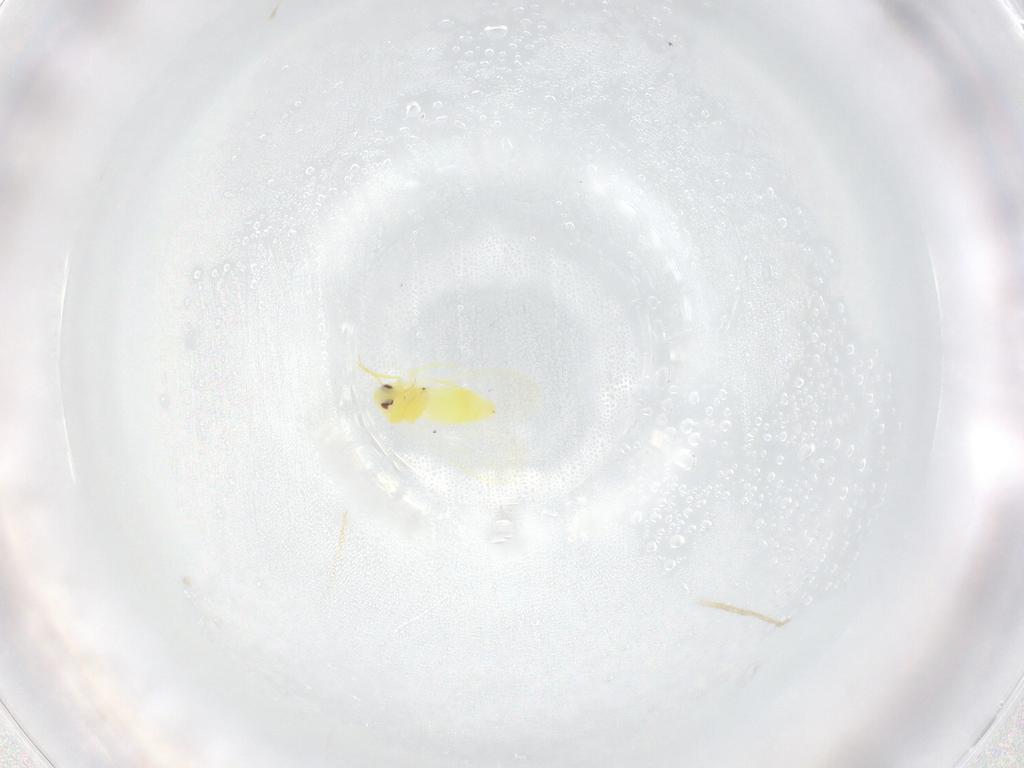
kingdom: Animalia
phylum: Arthropoda
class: Insecta
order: Hemiptera
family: Aleyrodidae
